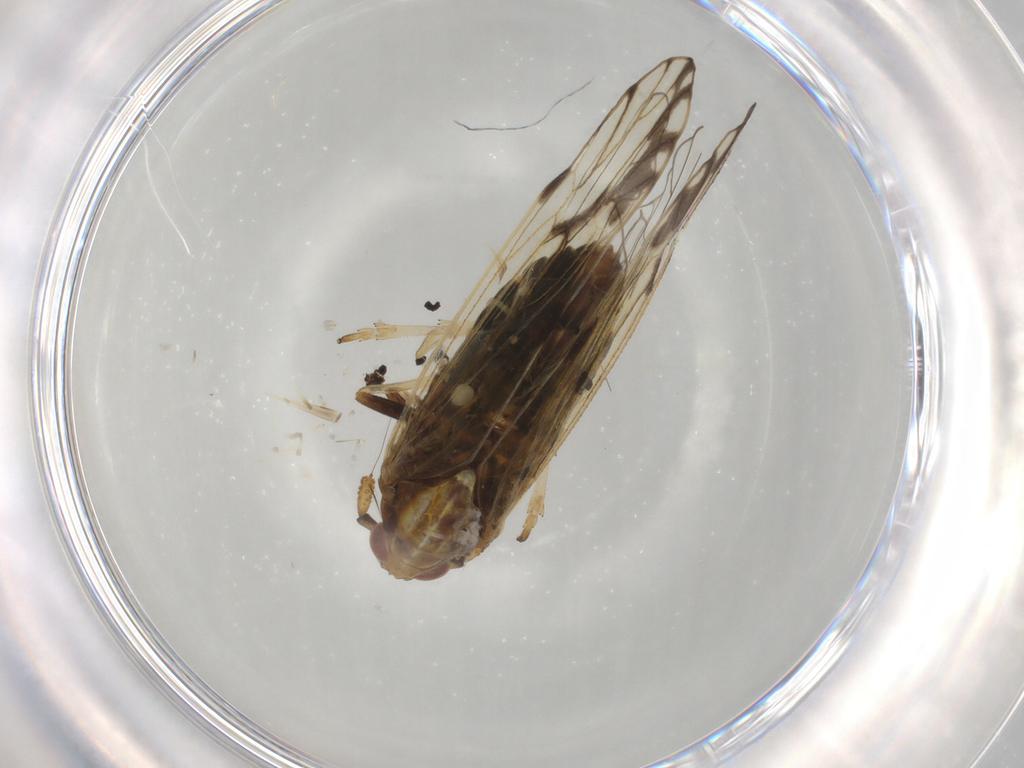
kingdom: Animalia
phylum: Arthropoda
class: Insecta
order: Hemiptera
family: Delphacidae
